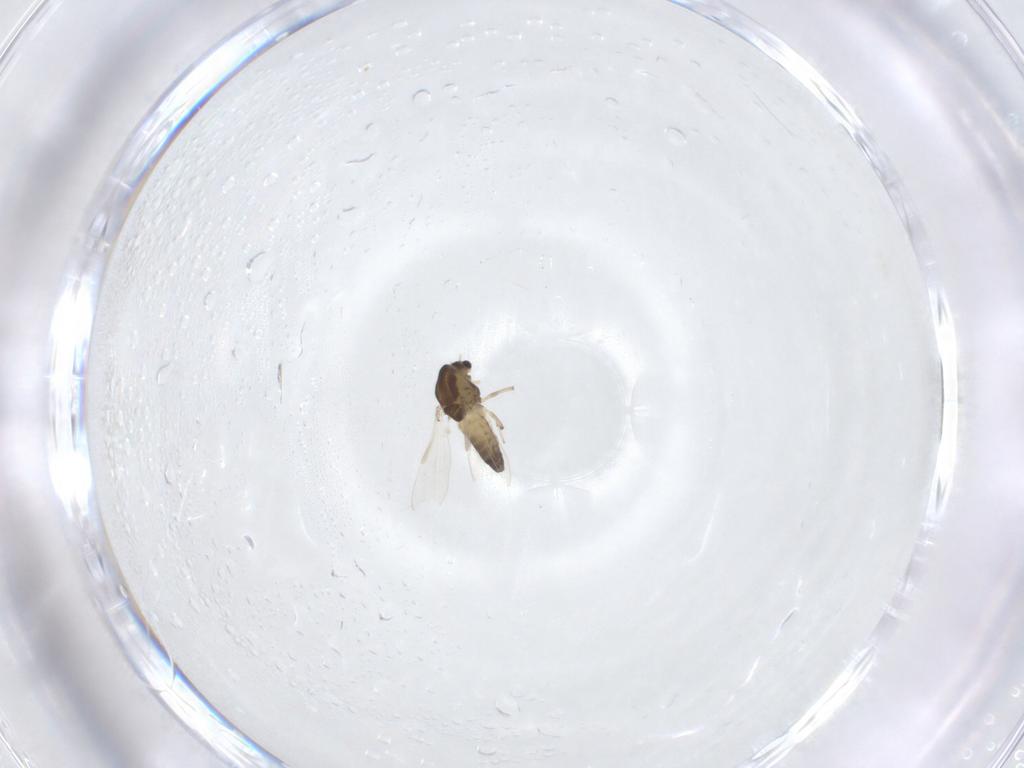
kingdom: Animalia
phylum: Arthropoda
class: Insecta
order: Diptera
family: Chironomidae
